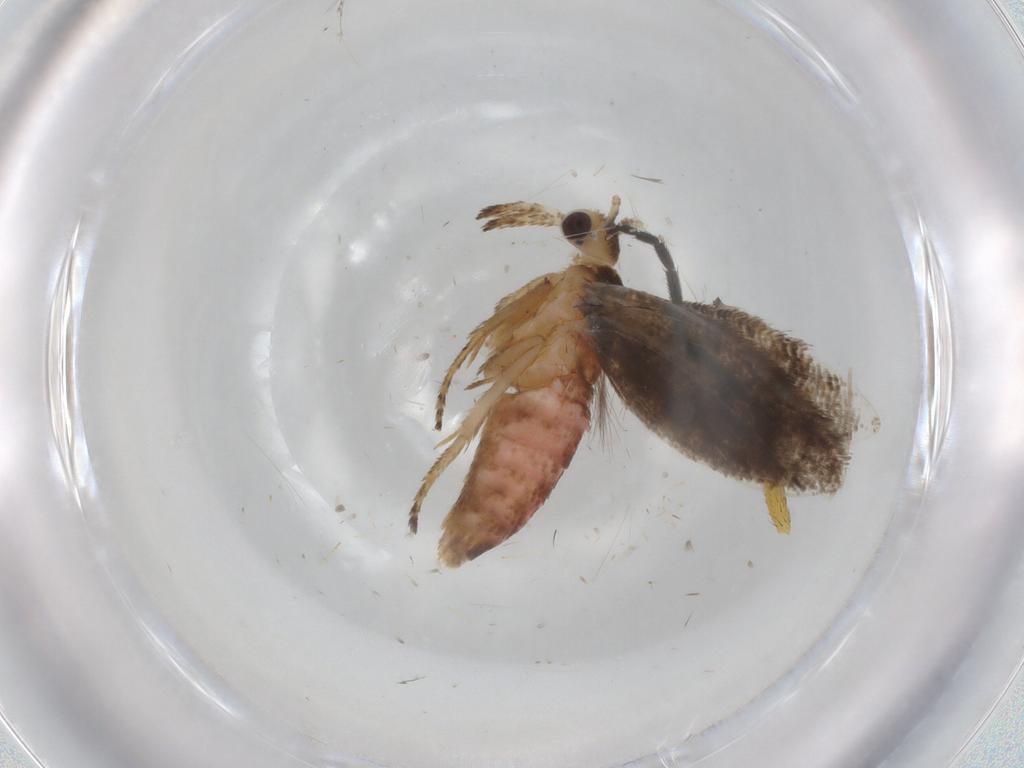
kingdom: Animalia
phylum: Arthropoda
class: Insecta
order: Lepidoptera
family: Plutellidae
